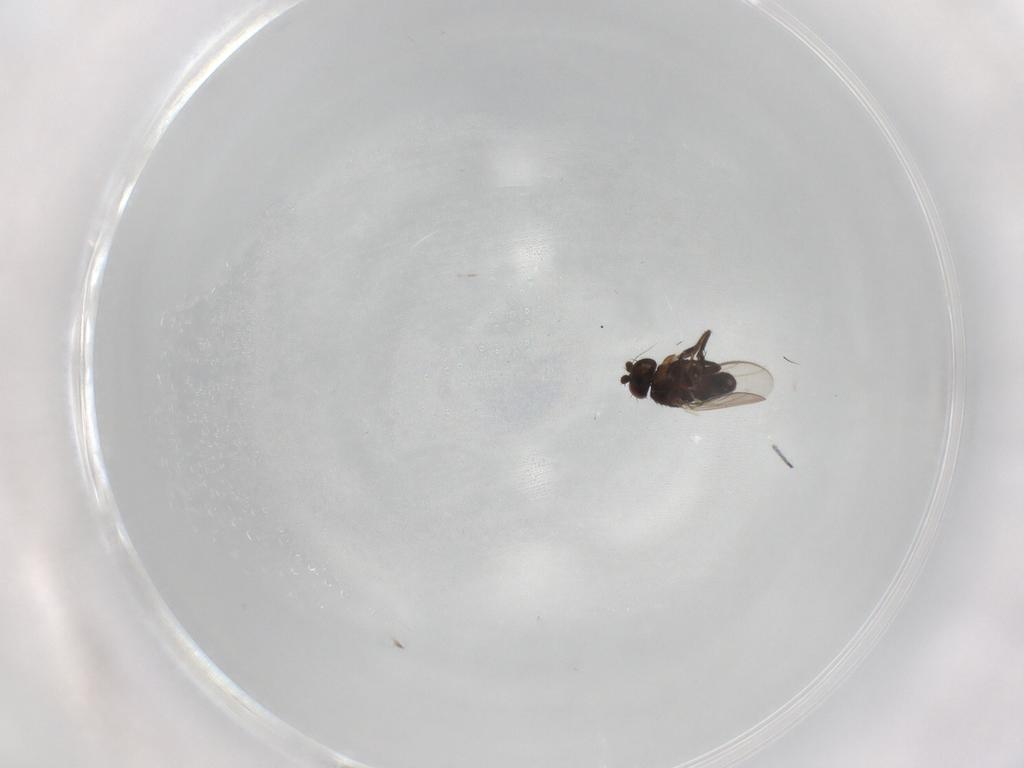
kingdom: Animalia
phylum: Arthropoda
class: Insecta
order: Diptera
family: Sphaeroceridae
